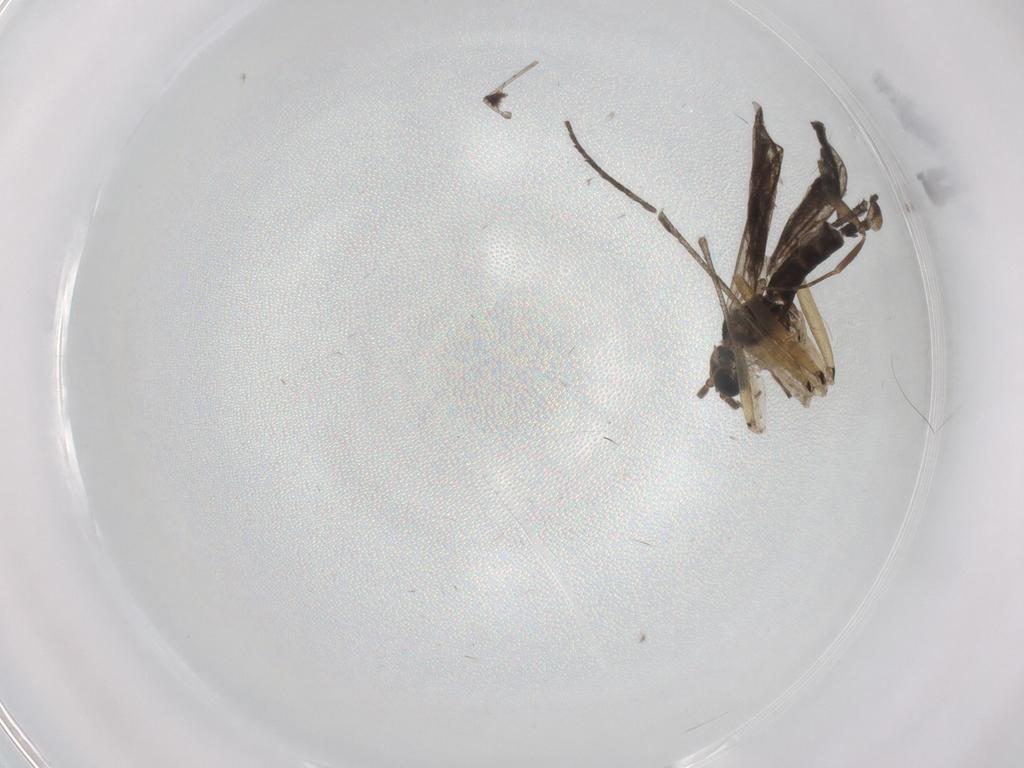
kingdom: Animalia
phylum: Arthropoda
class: Insecta
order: Diptera
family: Sciaridae
